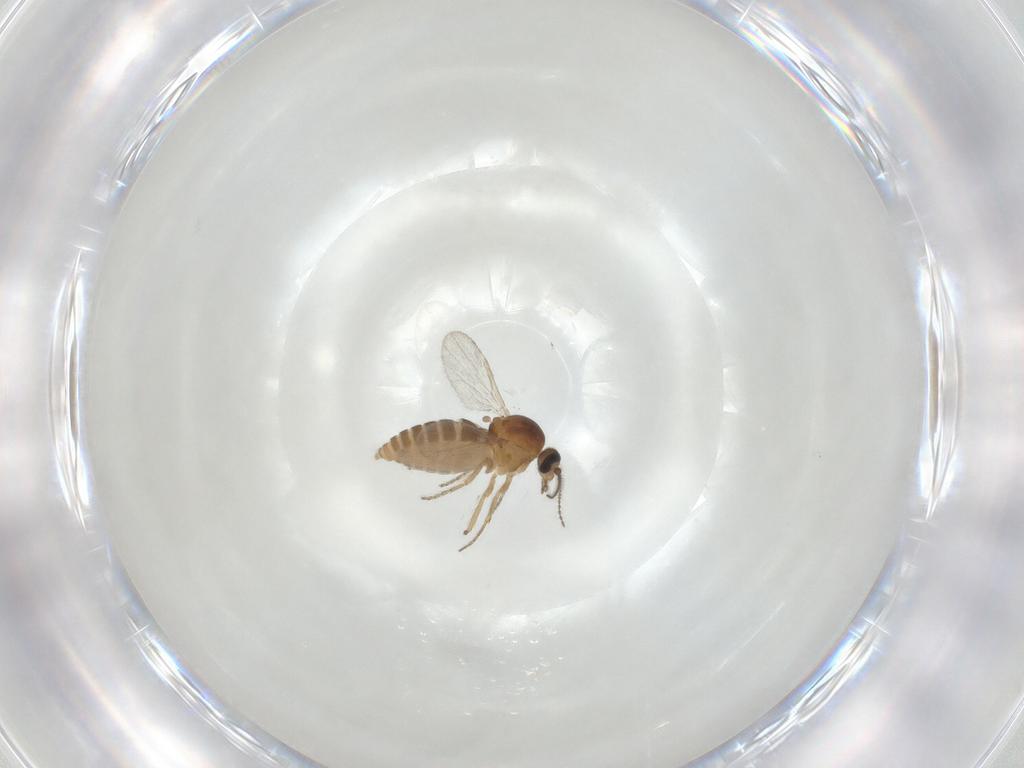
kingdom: Animalia
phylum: Arthropoda
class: Insecta
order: Diptera
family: Ceratopogonidae
